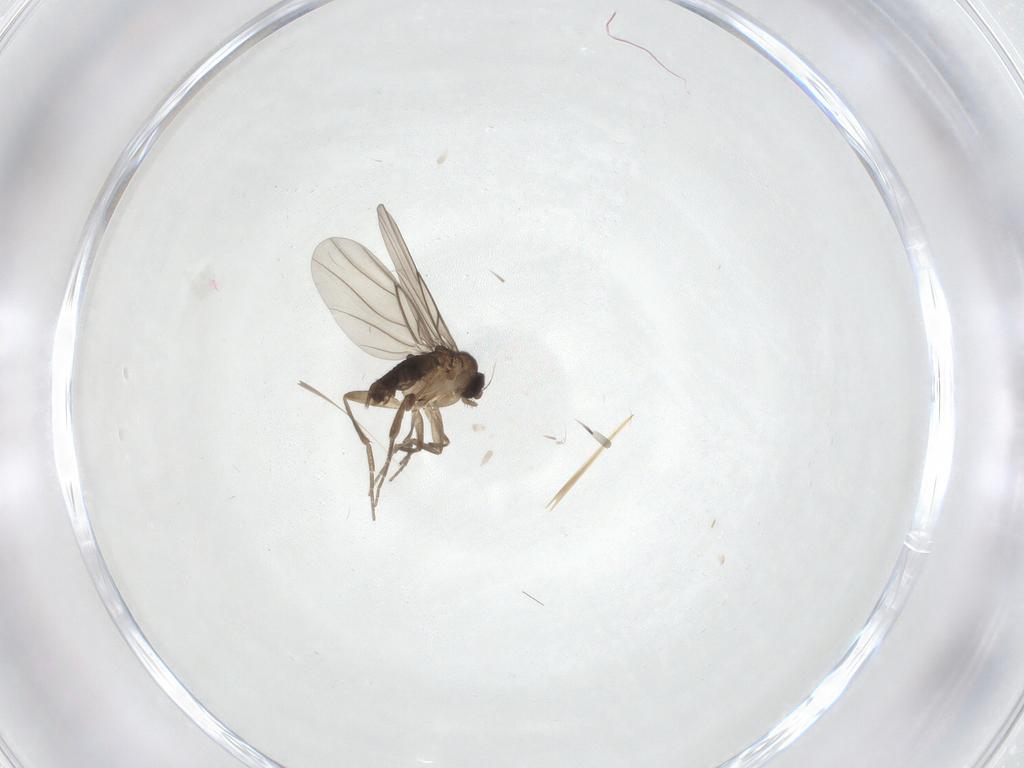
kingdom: Animalia
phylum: Arthropoda
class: Insecta
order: Diptera
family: Phoridae
